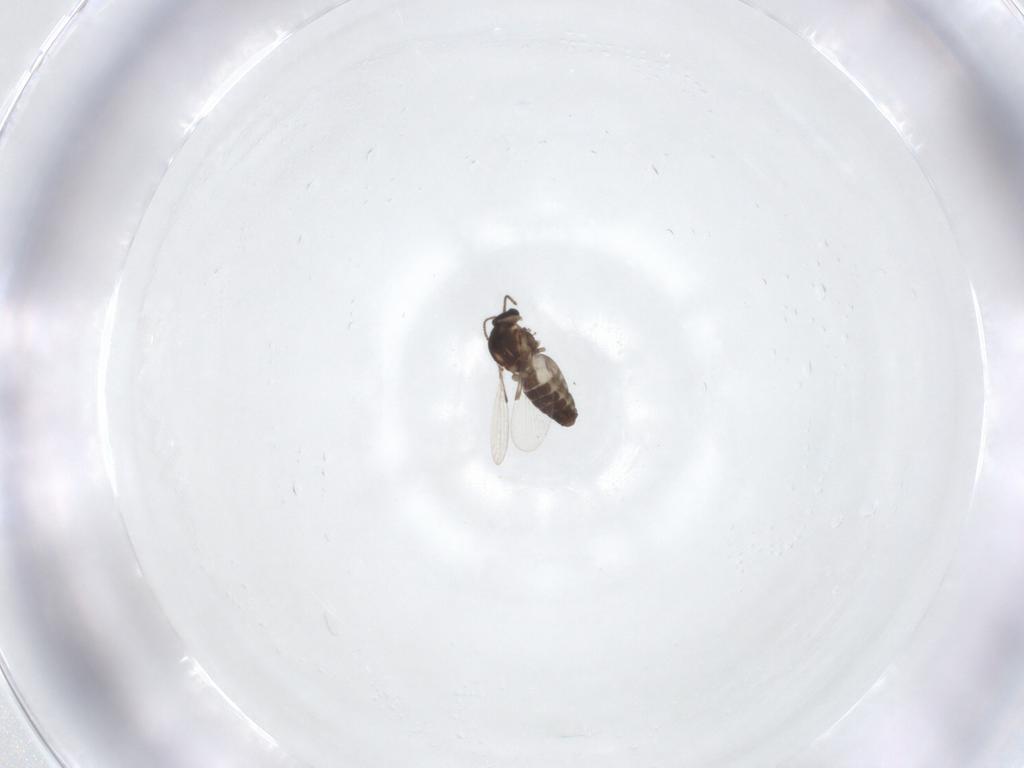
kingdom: Animalia
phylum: Arthropoda
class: Insecta
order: Diptera
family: Ceratopogonidae
